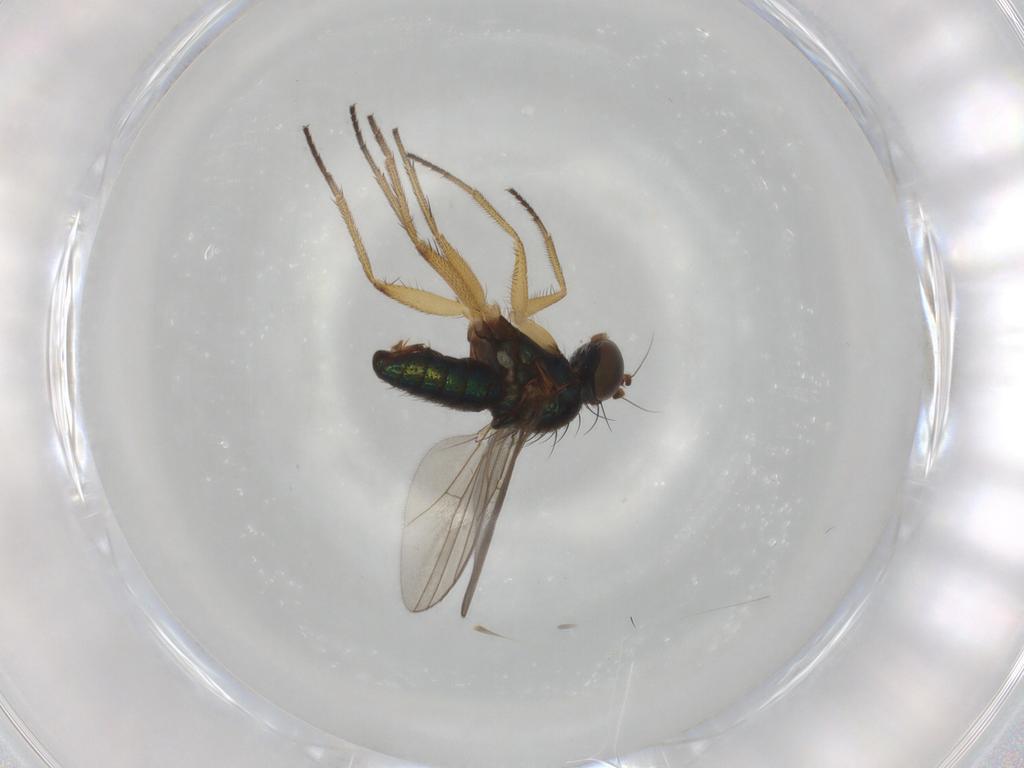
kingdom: Animalia
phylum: Arthropoda
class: Insecta
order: Diptera
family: Dolichopodidae
